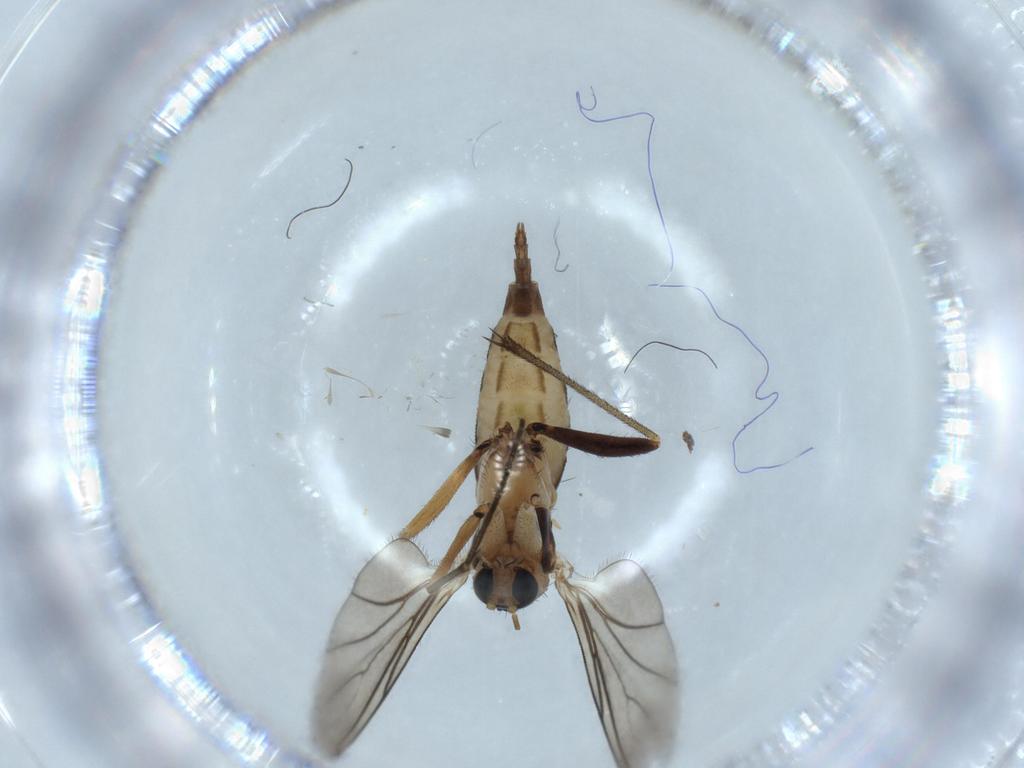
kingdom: Animalia
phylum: Arthropoda
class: Insecta
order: Diptera
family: Sciaridae
